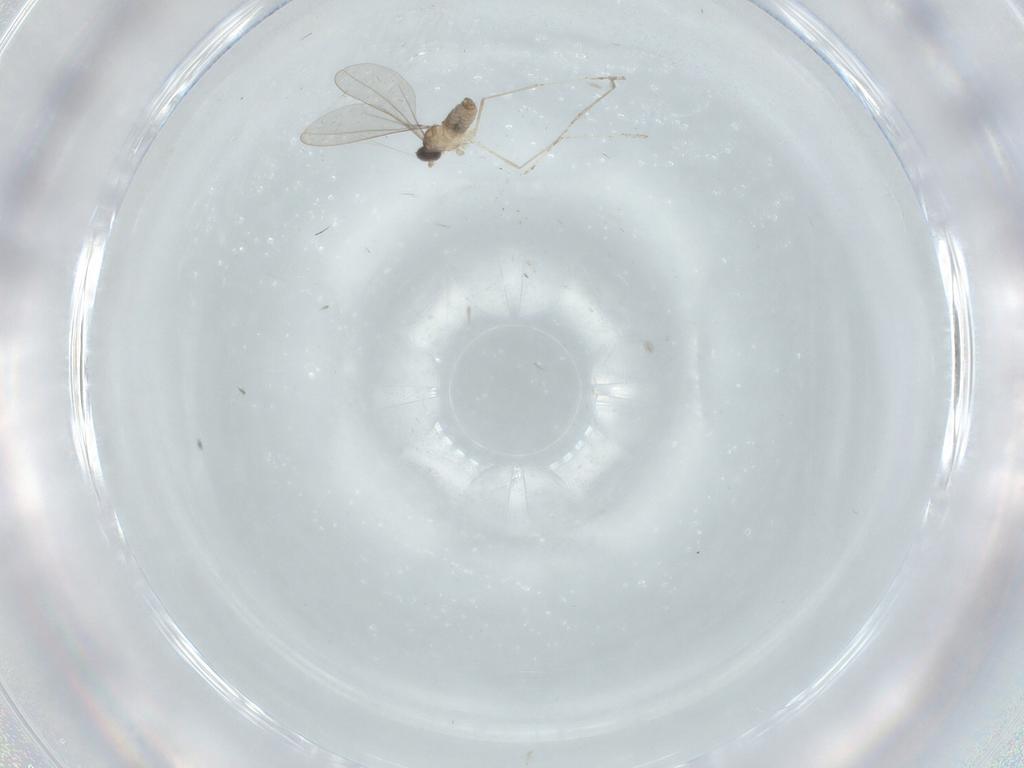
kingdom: Animalia
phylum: Arthropoda
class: Insecta
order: Diptera
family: Cecidomyiidae
